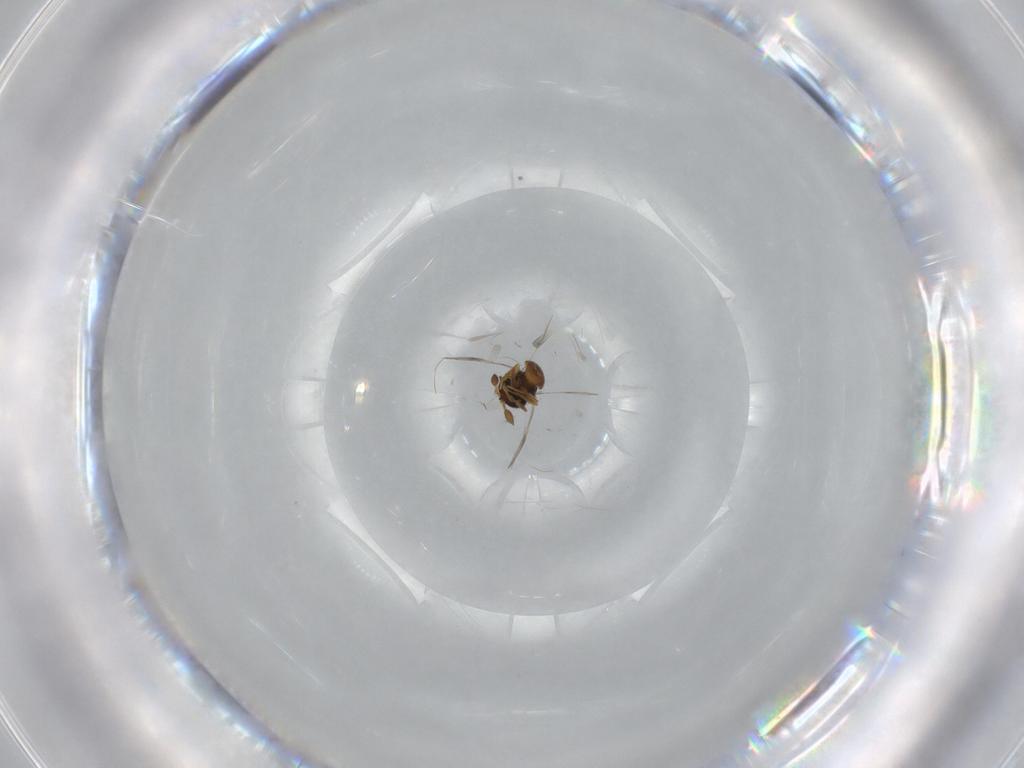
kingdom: Animalia
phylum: Arthropoda
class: Insecta
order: Hymenoptera
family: Scelionidae
